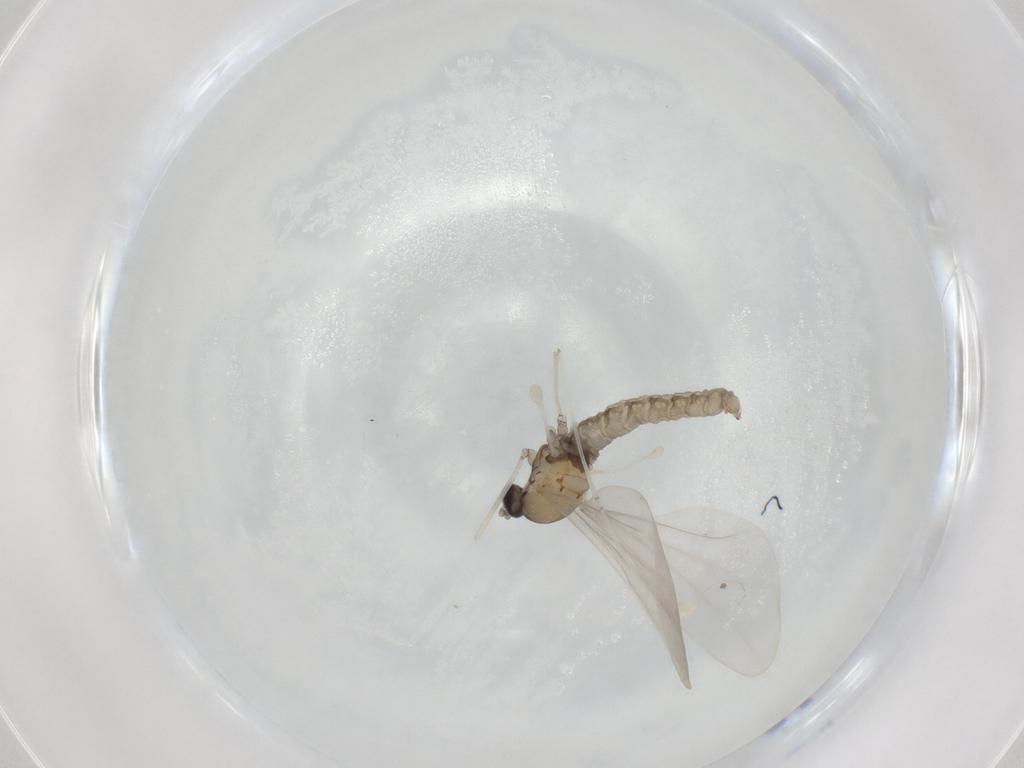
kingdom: Animalia
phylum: Arthropoda
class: Insecta
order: Diptera
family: Cecidomyiidae
